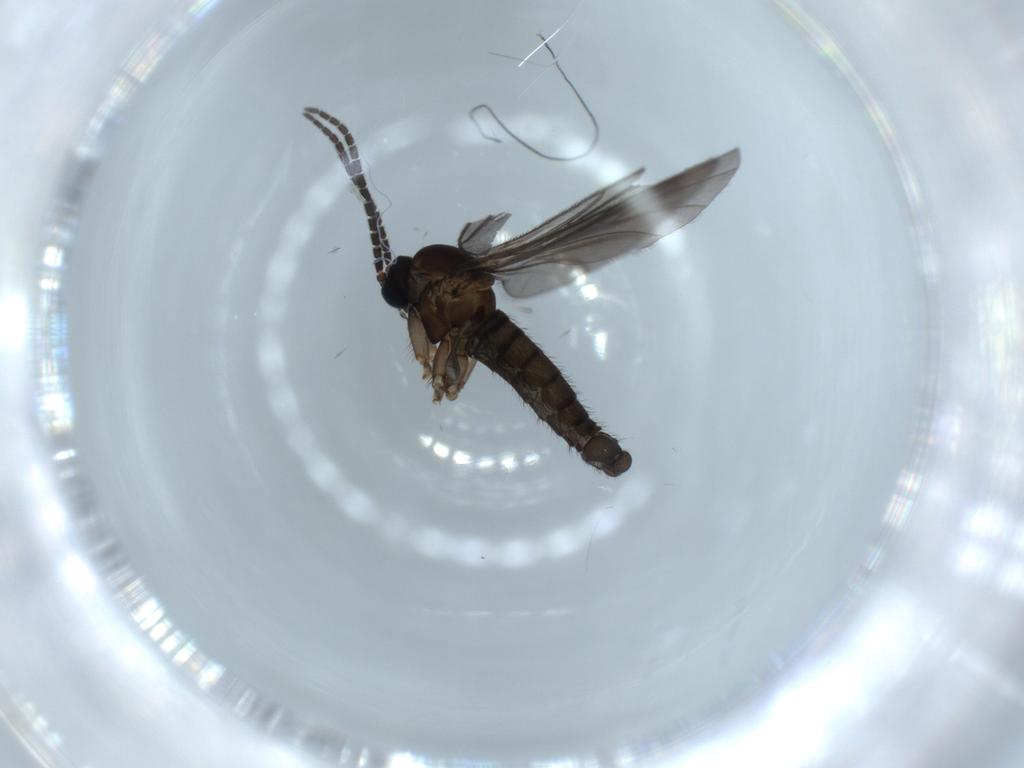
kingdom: Animalia
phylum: Arthropoda
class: Insecta
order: Diptera
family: Sciaridae
